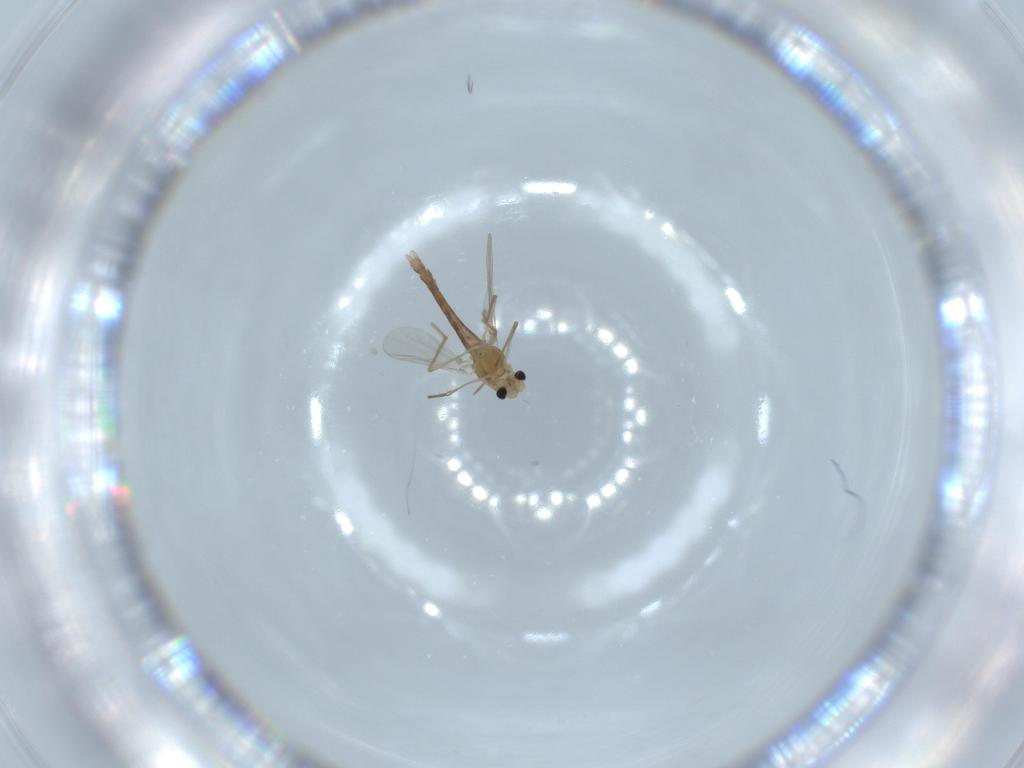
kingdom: Animalia
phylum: Arthropoda
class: Insecta
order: Diptera
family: Chironomidae
